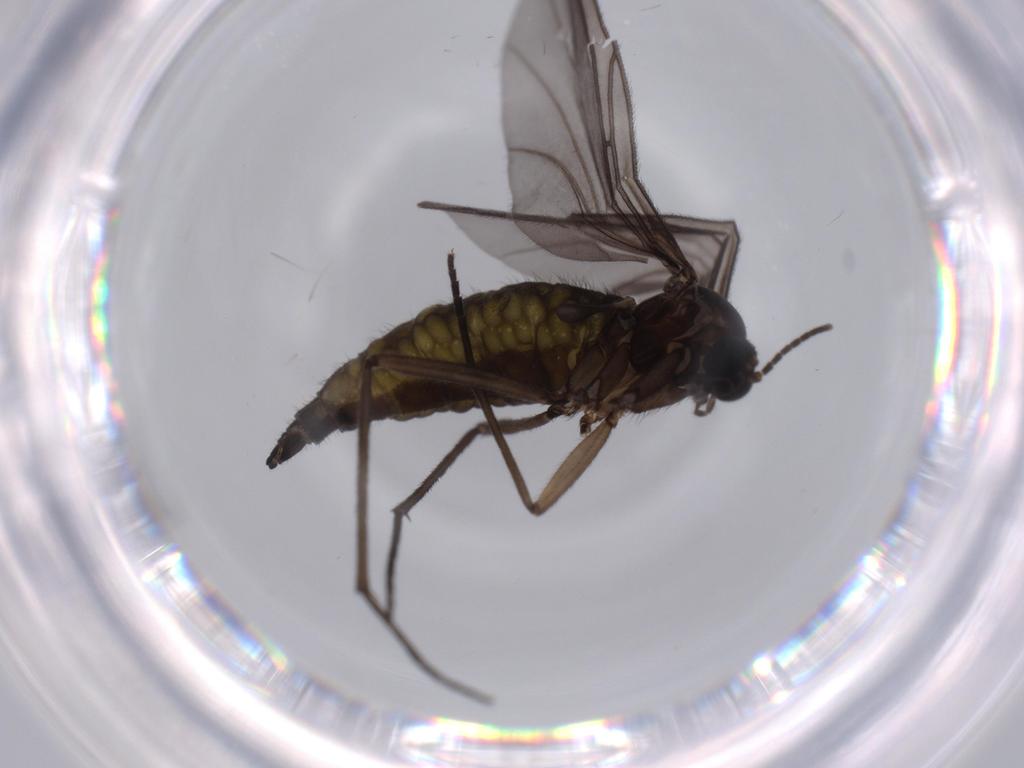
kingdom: Animalia
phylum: Arthropoda
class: Insecta
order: Diptera
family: Sciaridae
